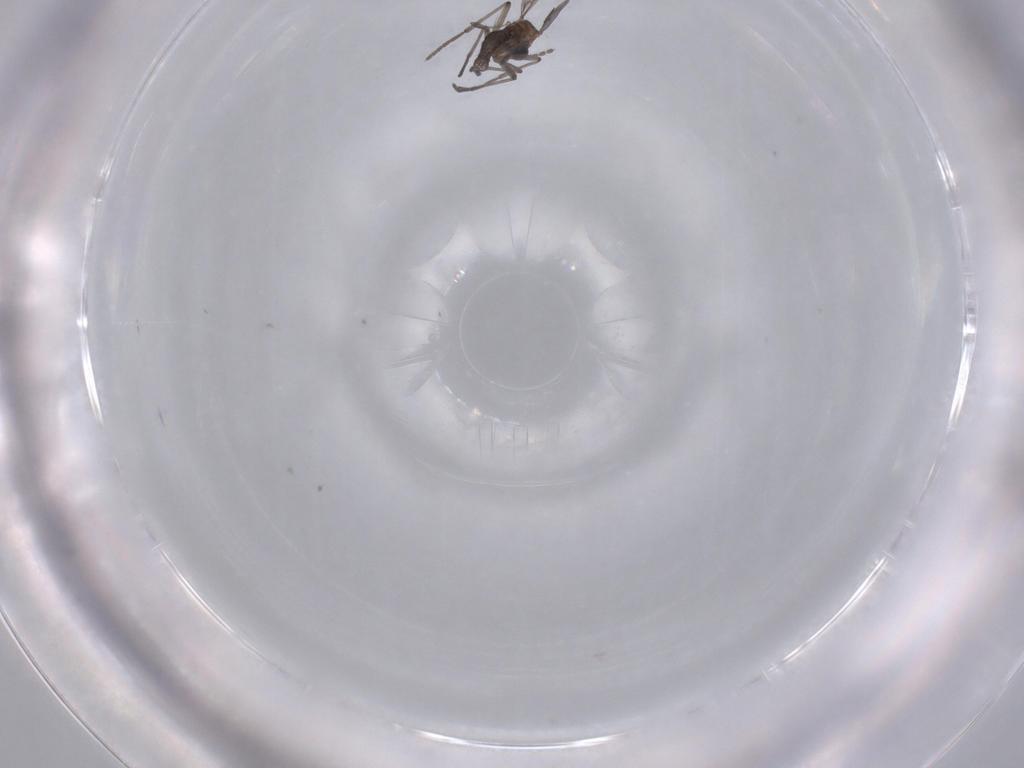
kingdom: Animalia
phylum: Arthropoda
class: Insecta
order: Diptera
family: Sciaridae
